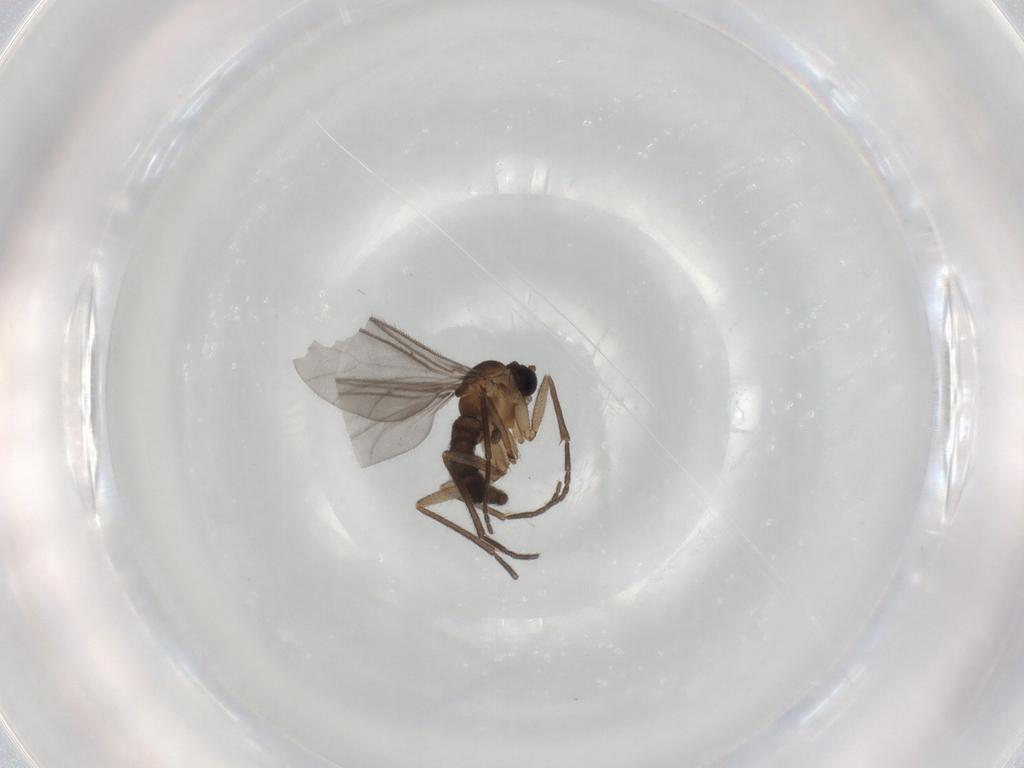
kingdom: Animalia
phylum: Arthropoda
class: Insecta
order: Diptera
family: Sciaridae
